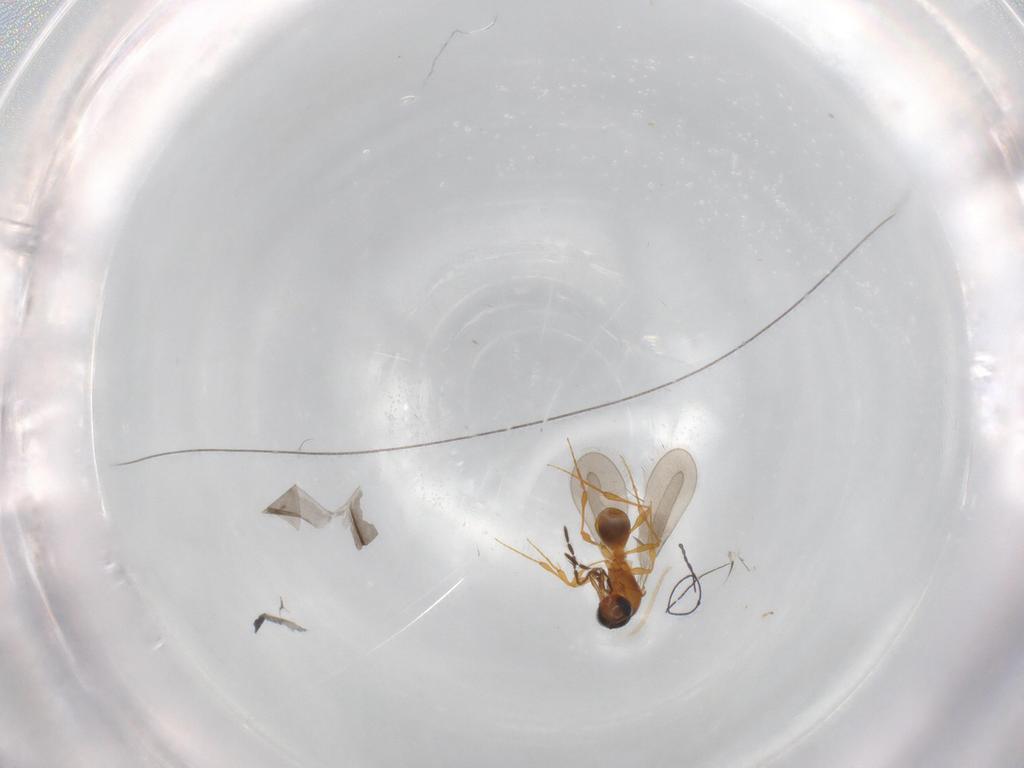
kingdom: Animalia
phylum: Arthropoda
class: Insecta
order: Hymenoptera
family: Platygastridae
